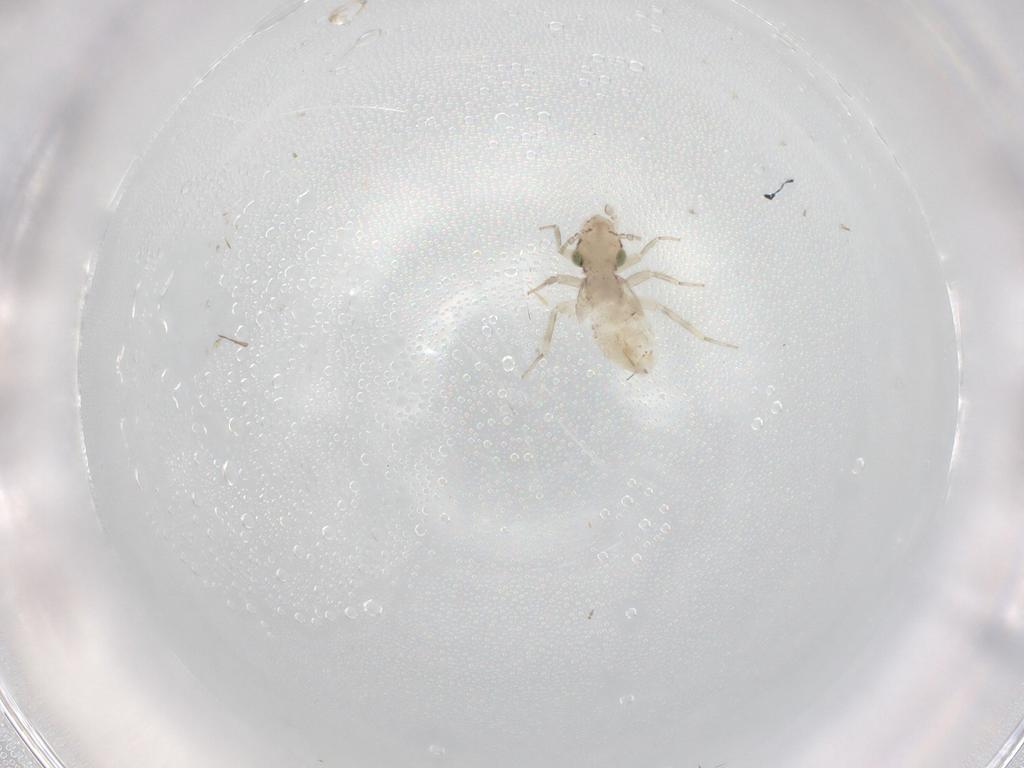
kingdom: Animalia
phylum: Arthropoda
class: Insecta
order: Psocodea
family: Lepidopsocidae
